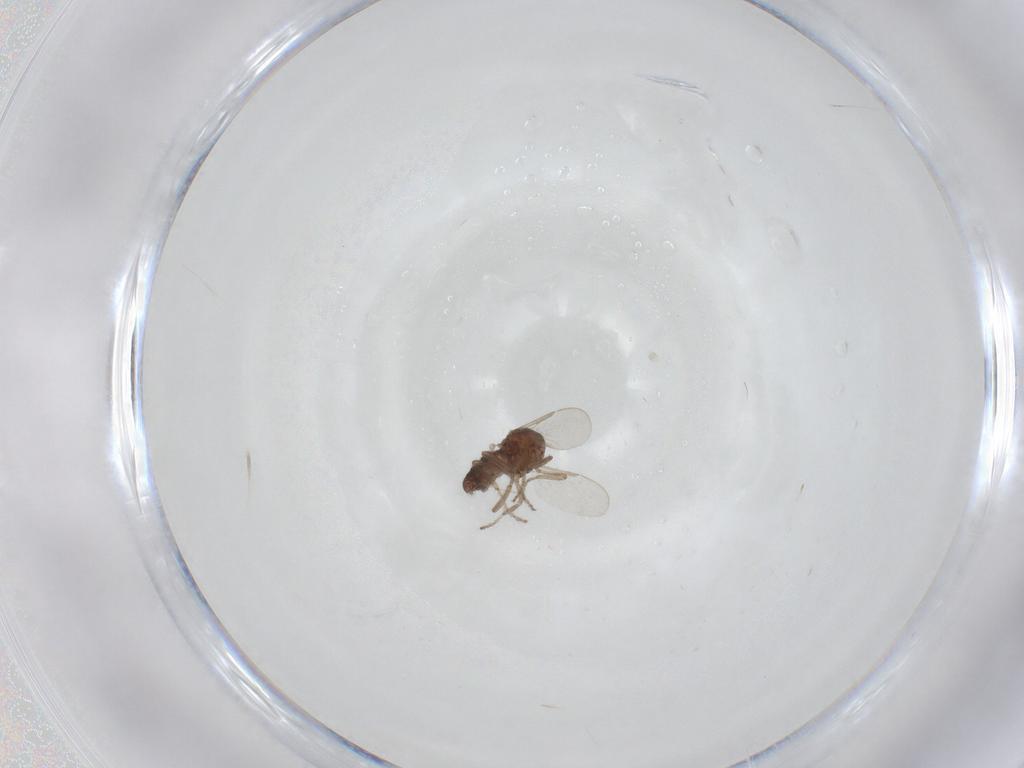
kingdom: Animalia
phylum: Arthropoda
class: Insecta
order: Diptera
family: Ceratopogonidae
